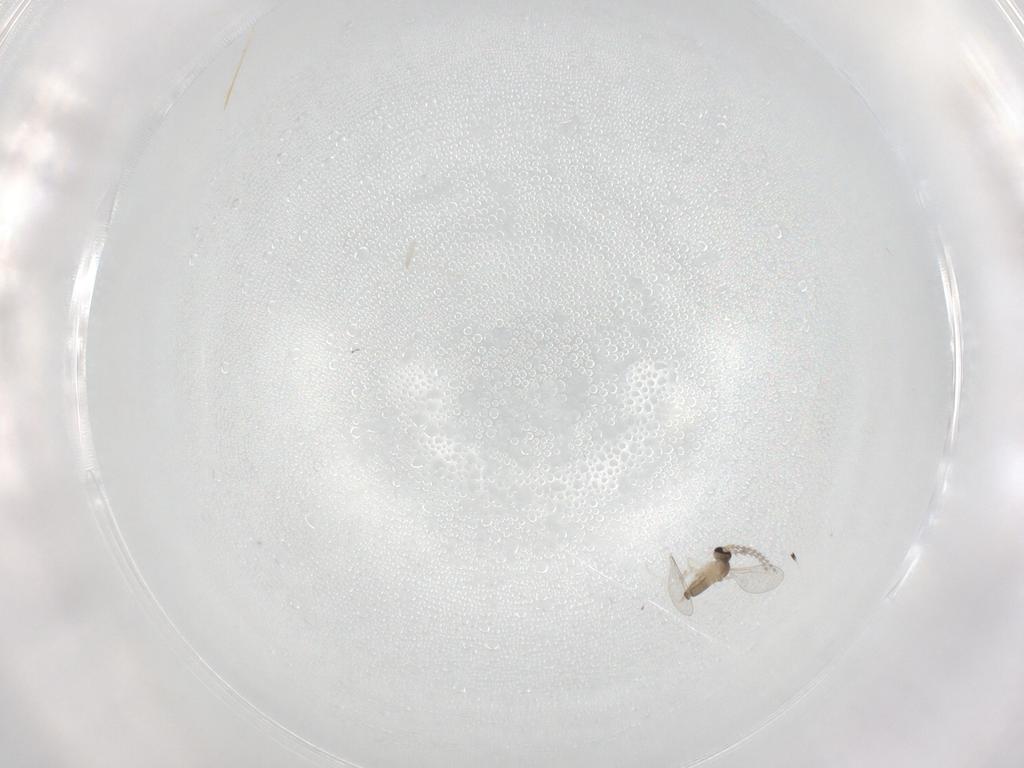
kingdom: Animalia
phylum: Arthropoda
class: Insecta
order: Diptera
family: Cecidomyiidae
